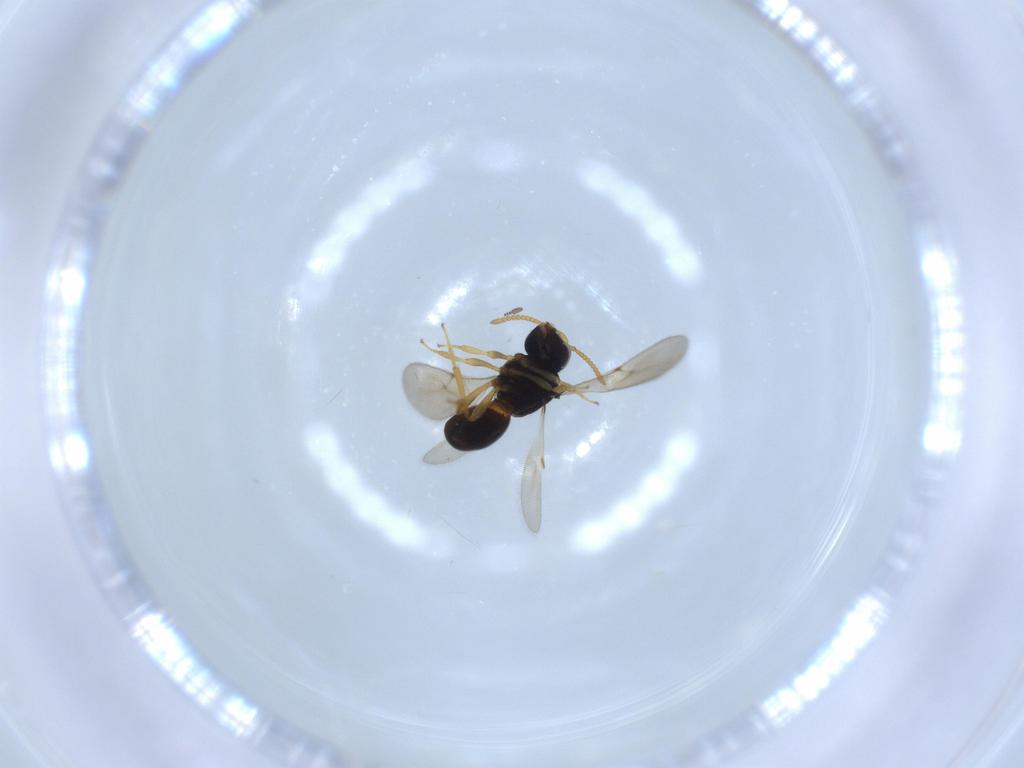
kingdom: Animalia
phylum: Arthropoda
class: Insecta
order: Hymenoptera
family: Scelionidae
